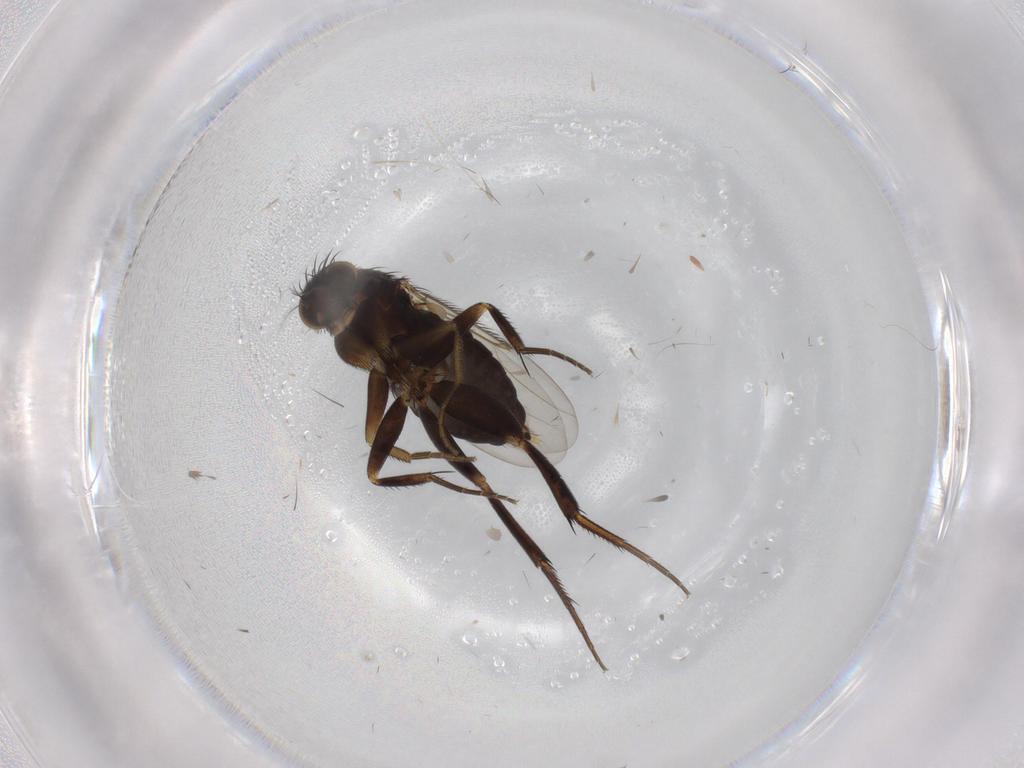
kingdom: Animalia
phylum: Arthropoda
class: Insecta
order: Diptera
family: Phoridae
